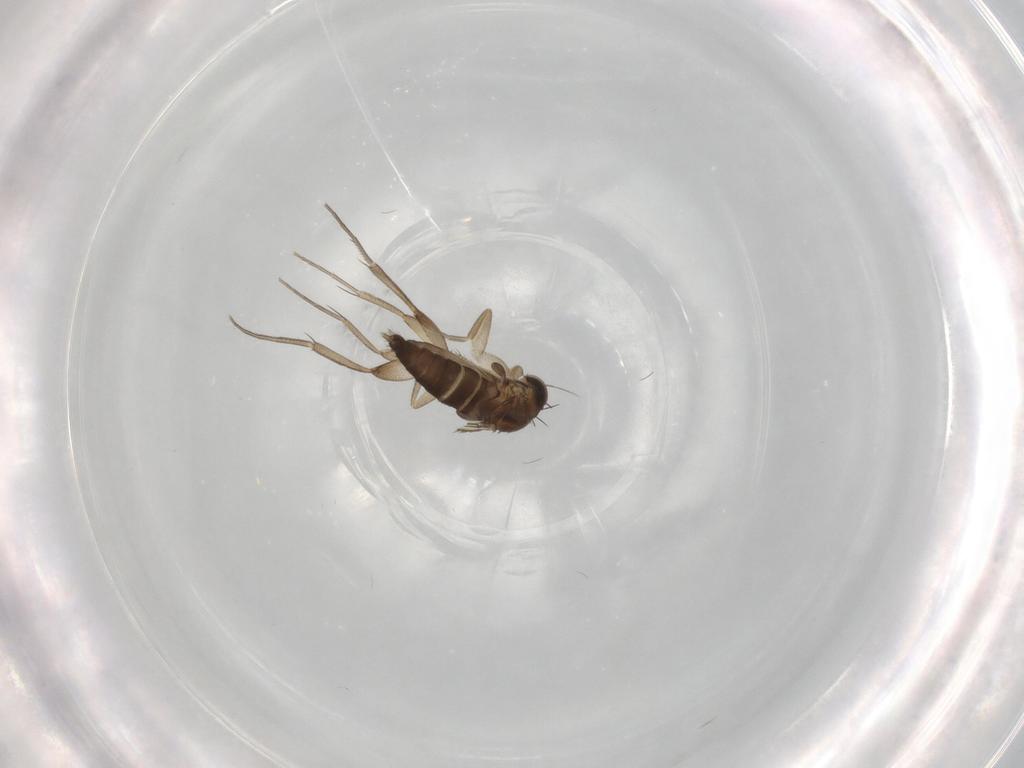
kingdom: Animalia
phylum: Arthropoda
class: Insecta
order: Diptera
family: Phoridae
